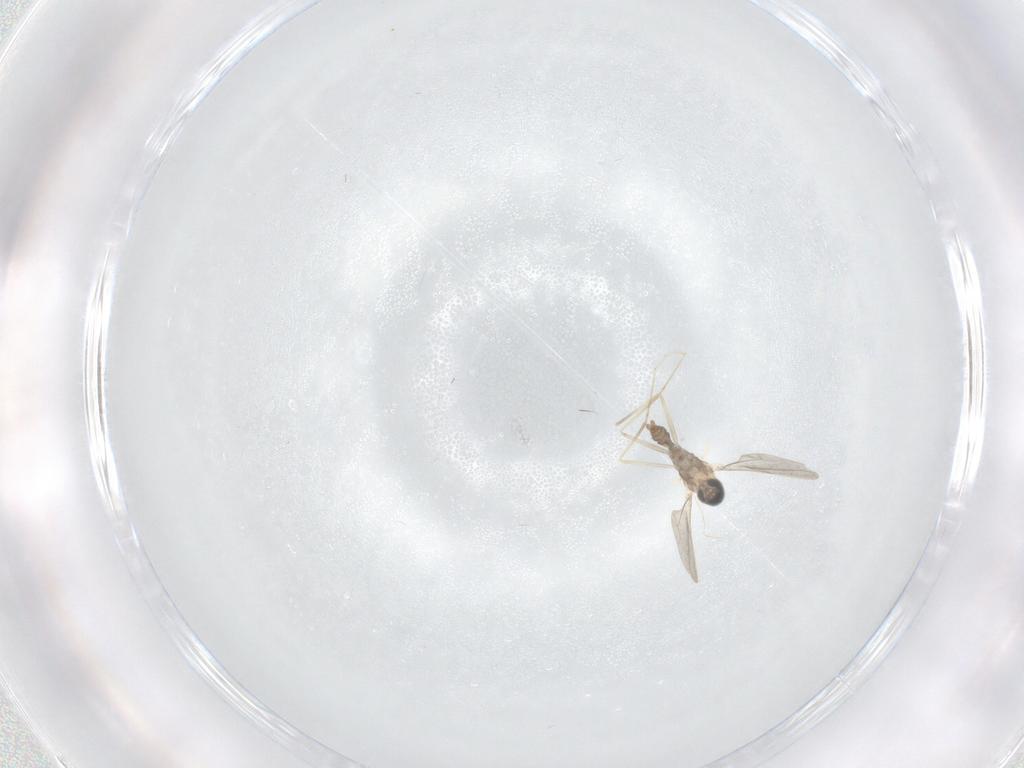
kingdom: Animalia
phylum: Arthropoda
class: Insecta
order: Diptera
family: Cecidomyiidae
